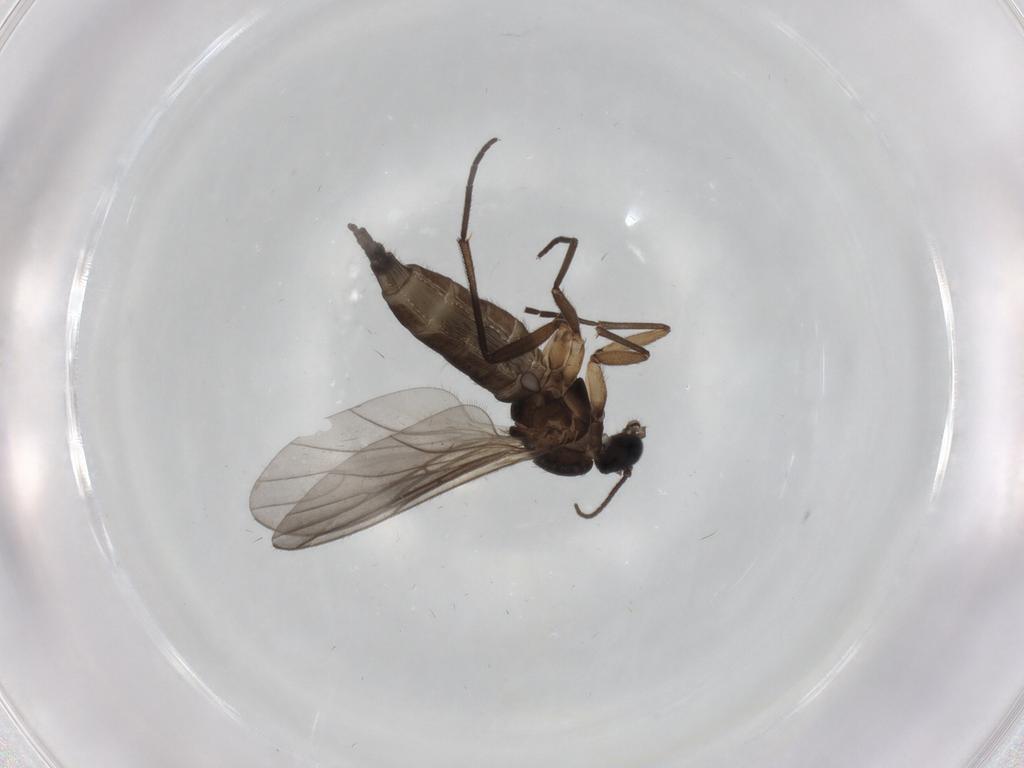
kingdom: Animalia
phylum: Arthropoda
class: Insecta
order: Diptera
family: Sciaridae
